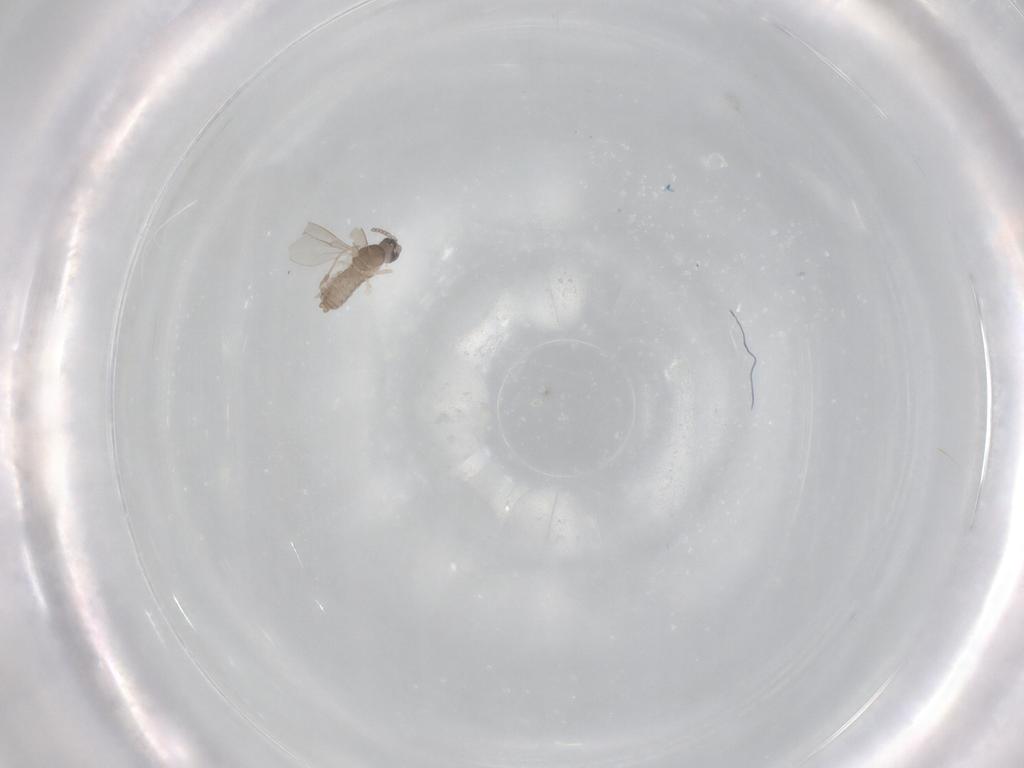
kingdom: Animalia
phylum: Arthropoda
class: Insecta
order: Diptera
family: Cecidomyiidae
